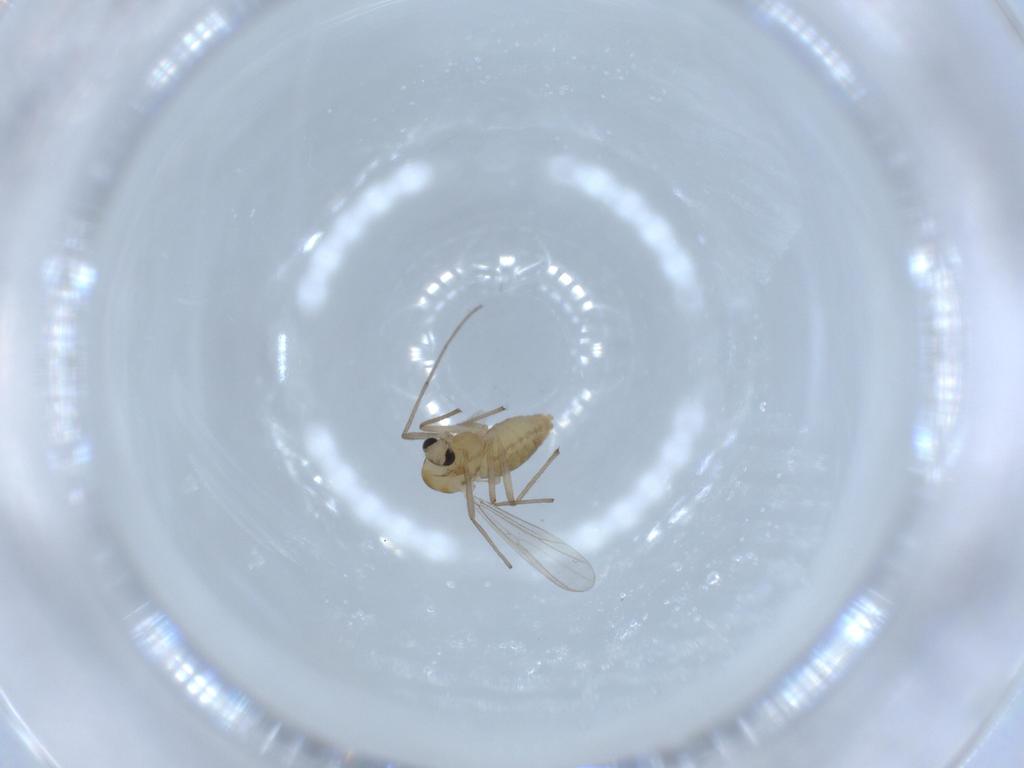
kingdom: Animalia
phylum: Arthropoda
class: Insecta
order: Diptera
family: Chironomidae
